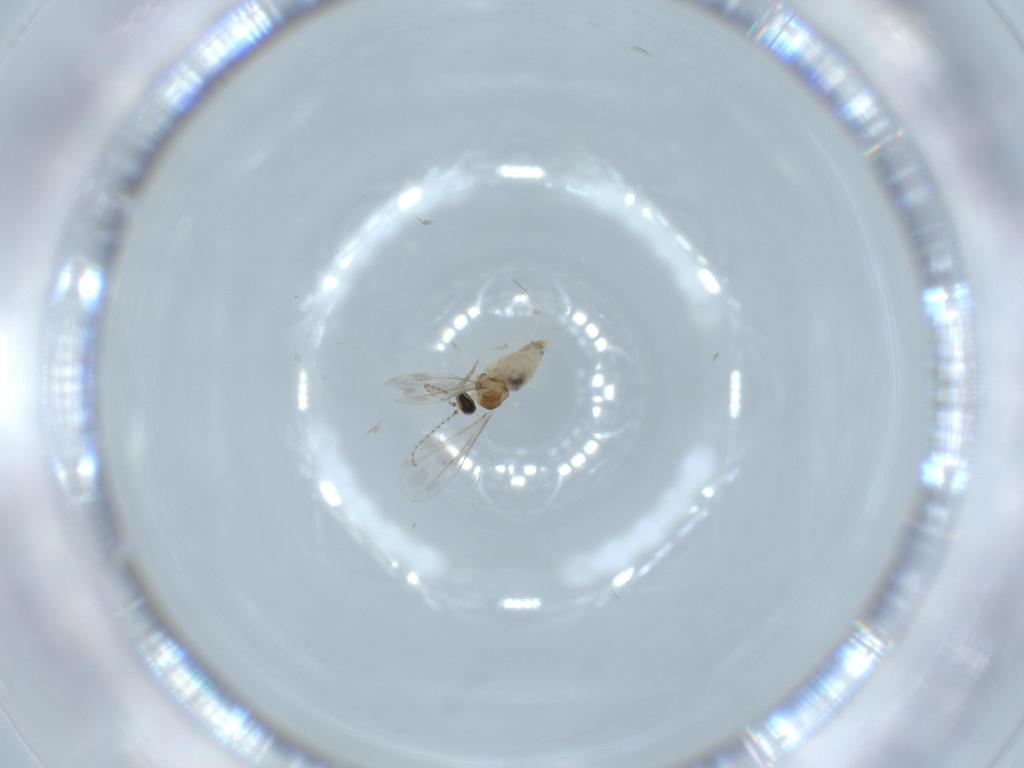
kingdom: Animalia
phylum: Arthropoda
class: Insecta
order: Diptera
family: Cecidomyiidae
